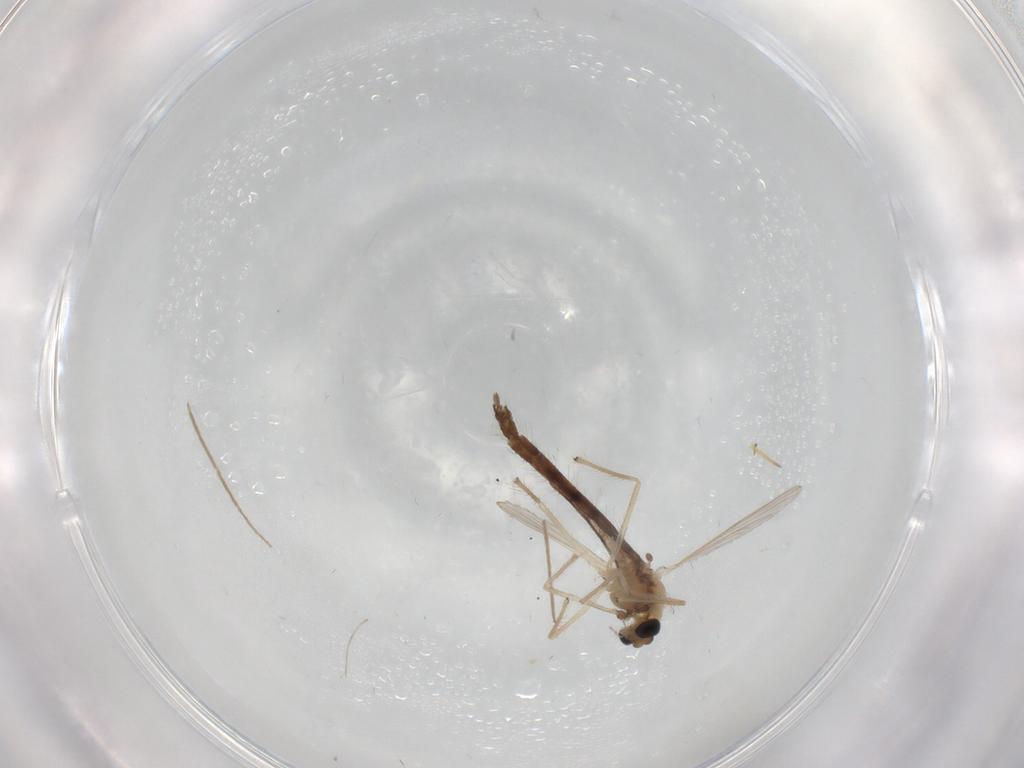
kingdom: Animalia
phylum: Arthropoda
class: Insecta
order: Diptera
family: Chironomidae
